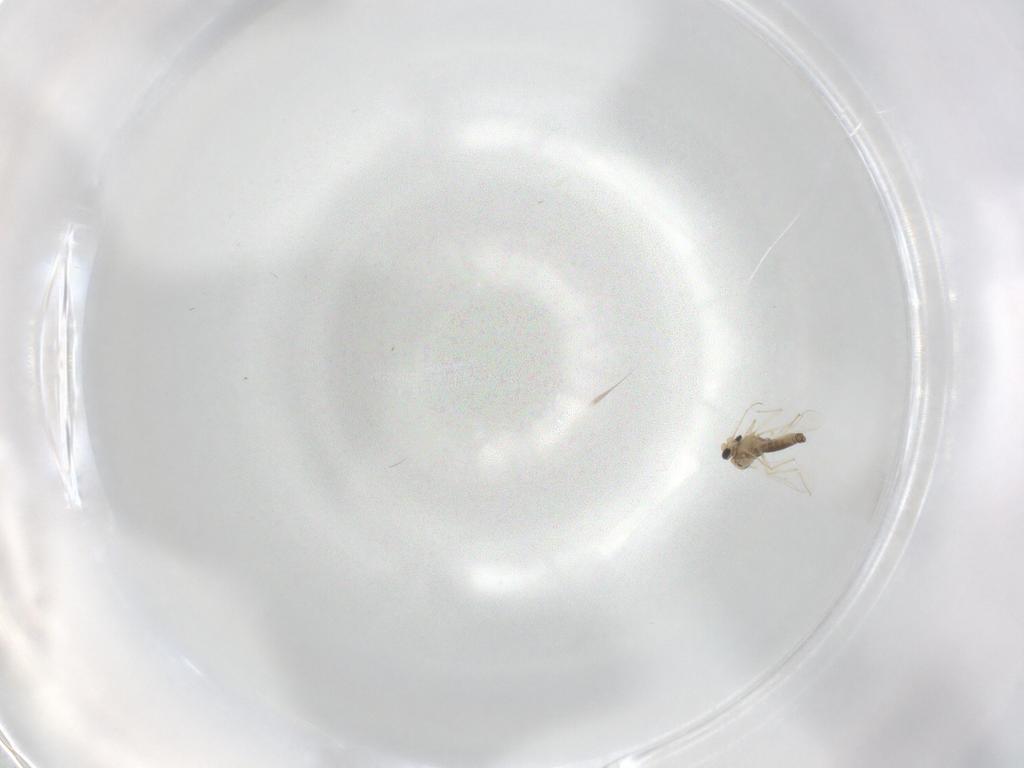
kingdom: Animalia
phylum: Arthropoda
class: Insecta
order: Diptera
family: Chironomidae
